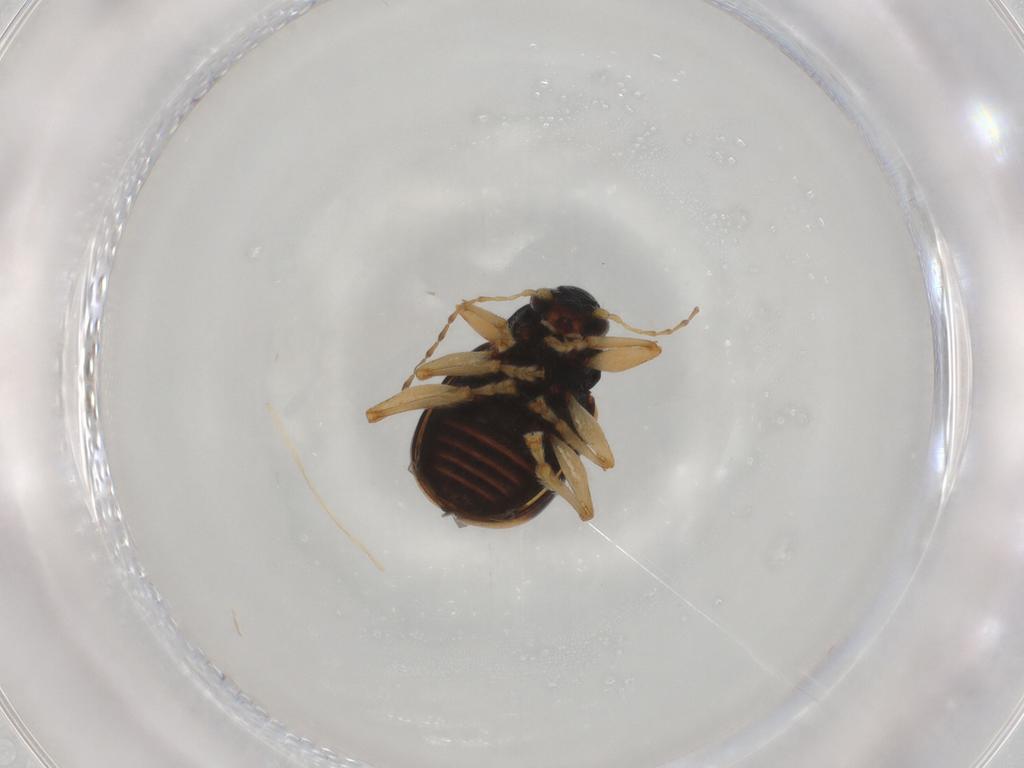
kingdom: Animalia
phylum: Arthropoda
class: Insecta
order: Coleoptera
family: Chrysomelidae
